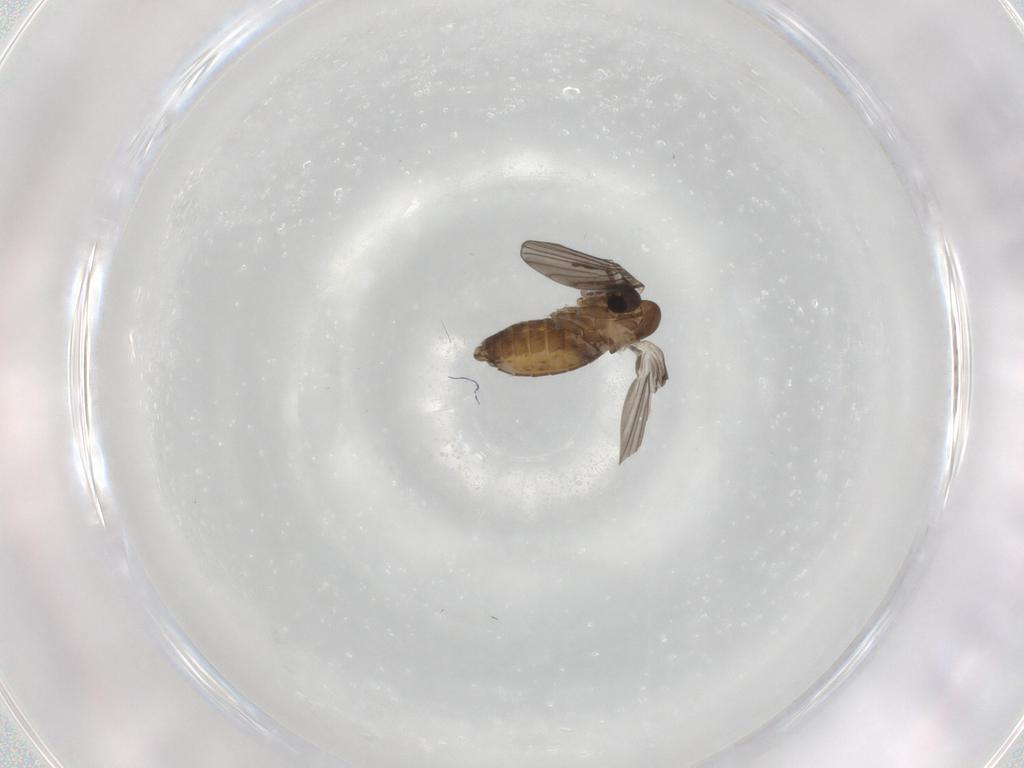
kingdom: Animalia
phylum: Arthropoda
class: Insecta
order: Diptera
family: Psychodidae
